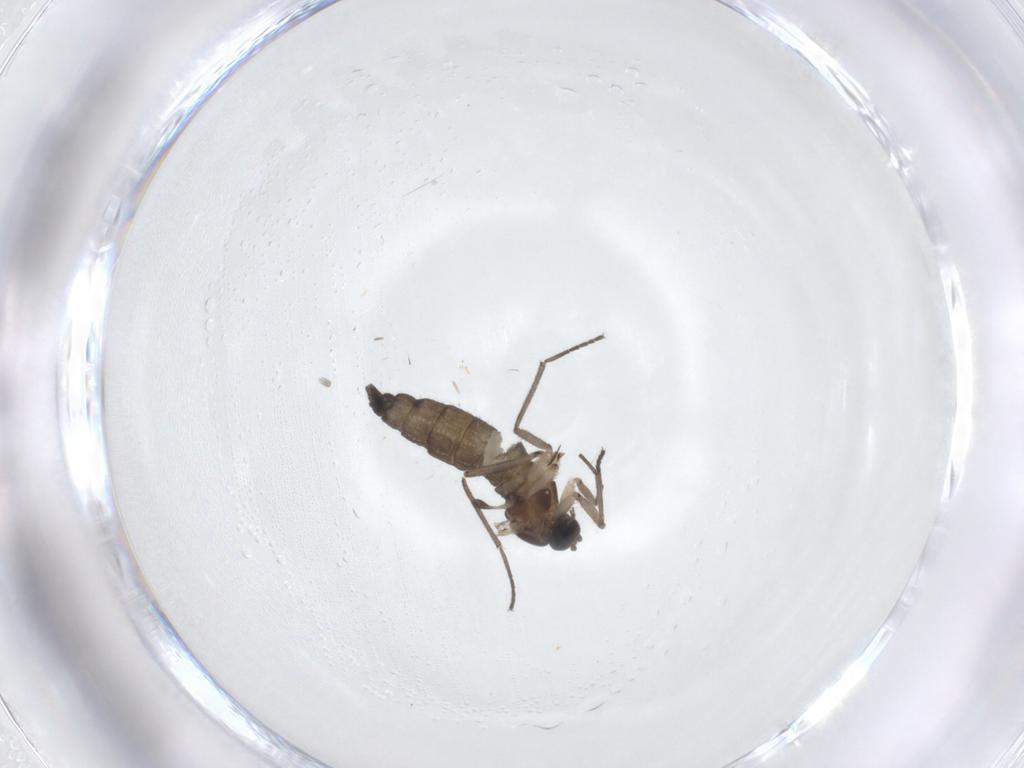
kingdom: Animalia
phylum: Arthropoda
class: Insecta
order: Diptera
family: Sciaridae
